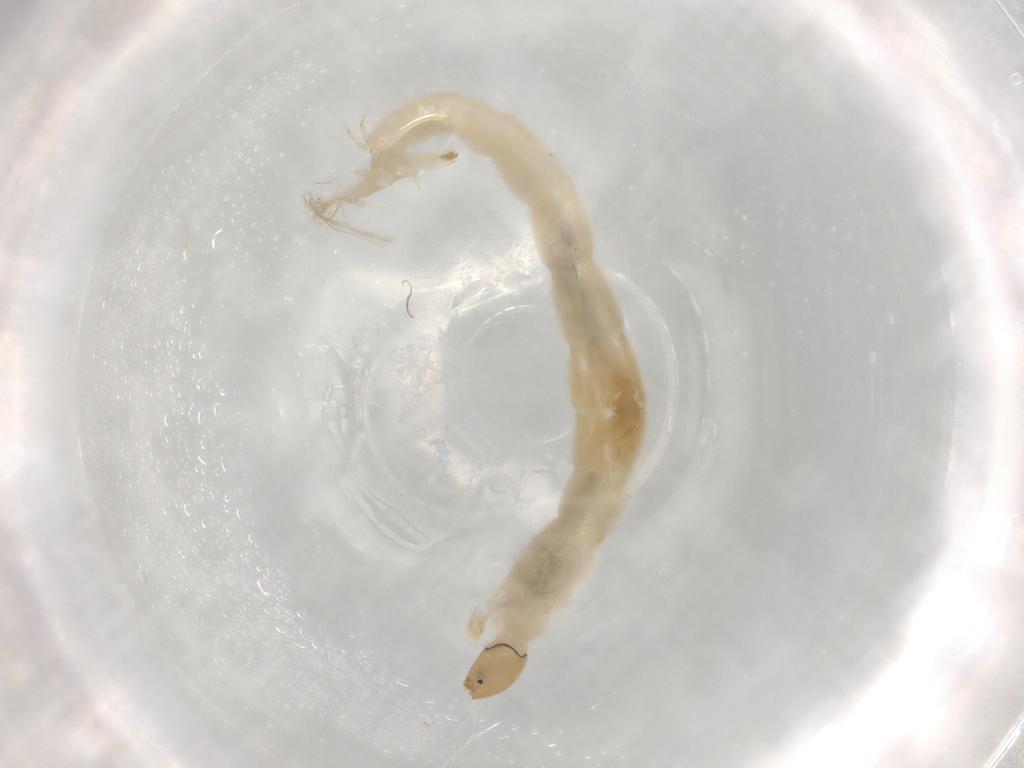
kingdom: Animalia
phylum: Arthropoda
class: Insecta
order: Diptera
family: Chironomidae
